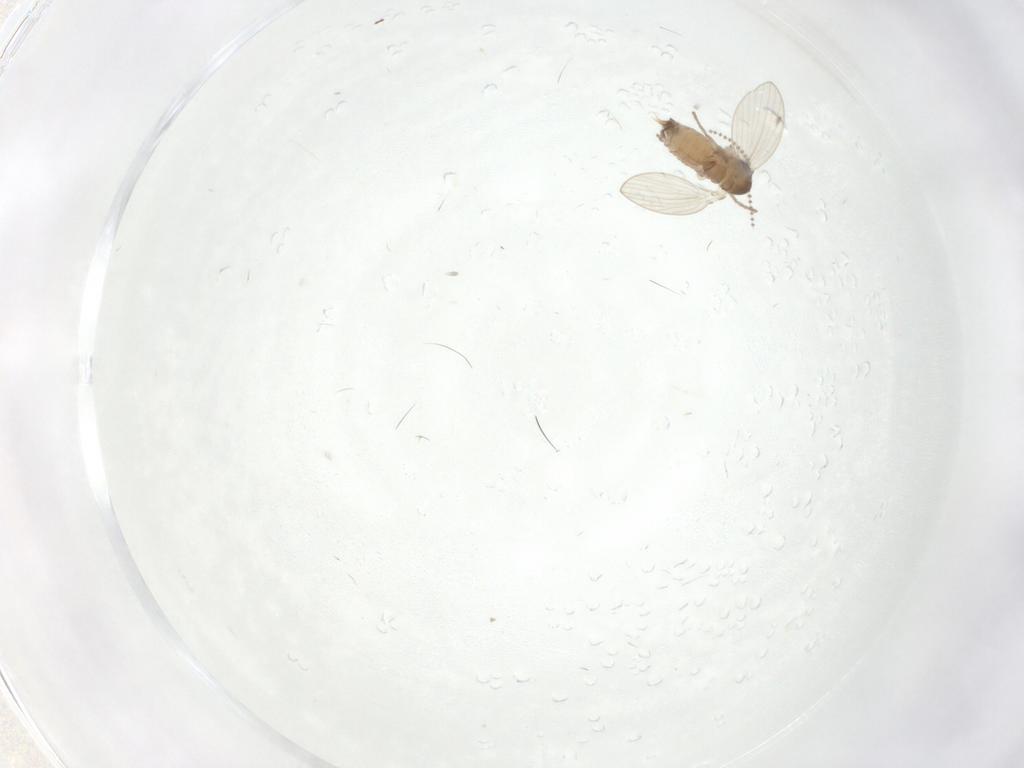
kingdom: Animalia
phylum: Arthropoda
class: Insecta
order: Diptera
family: Psychodidae
